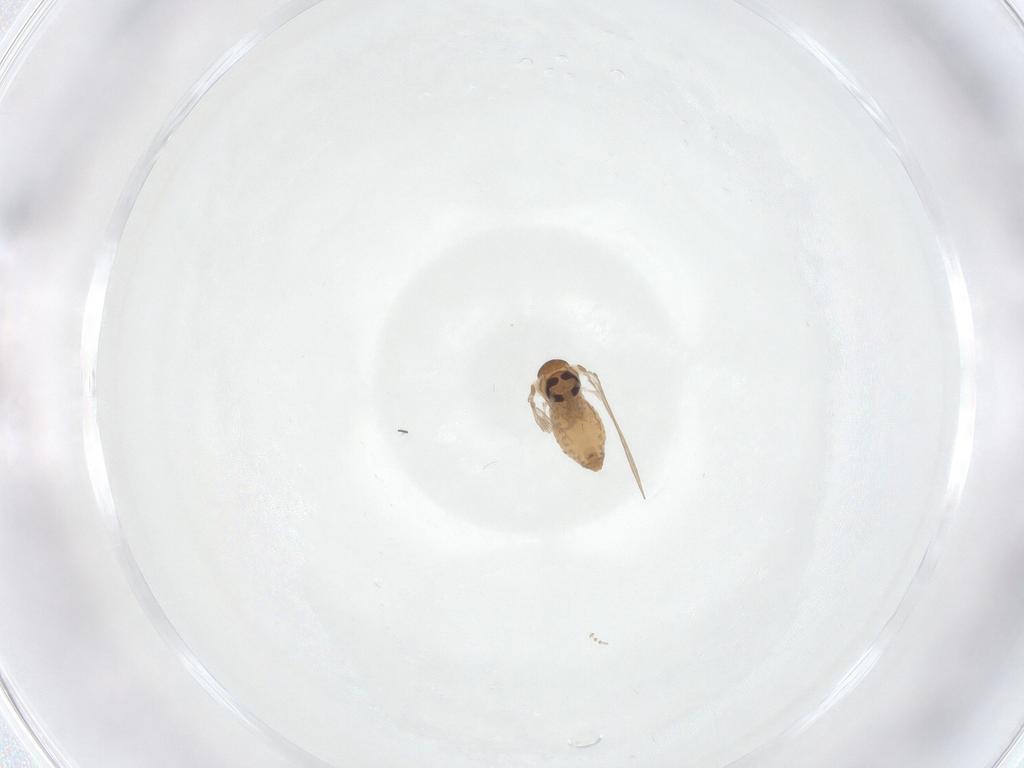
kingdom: Animalia
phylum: Arthropoda
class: Insecta
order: Diptera
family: Psychodidae
